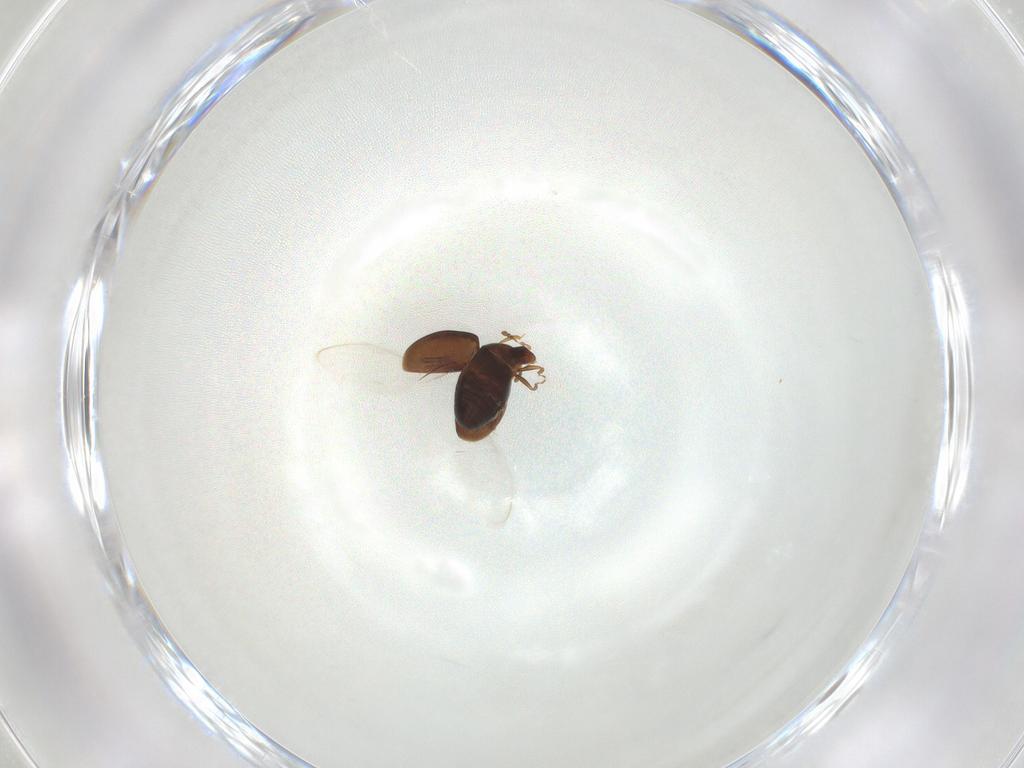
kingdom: Animalia
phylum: Arthropoda
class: Insecta
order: Coleoptera
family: Corylophidae
